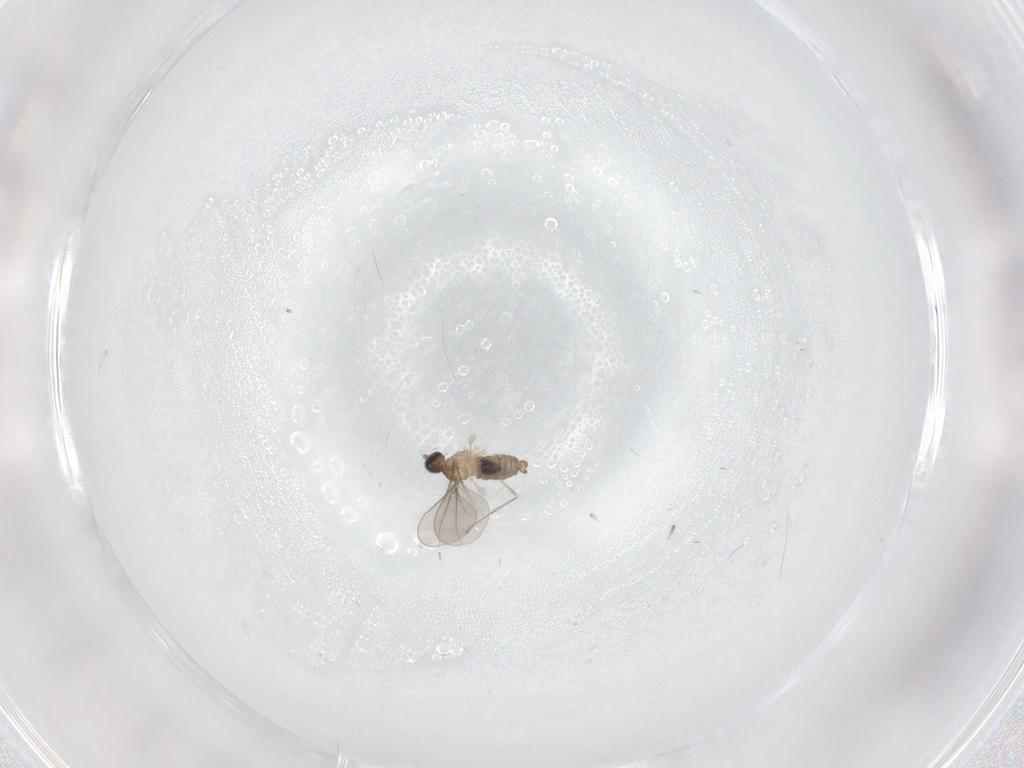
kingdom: Animalia
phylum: Arthropoda
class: Insecta
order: Diptera
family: Cecidomyiidae
